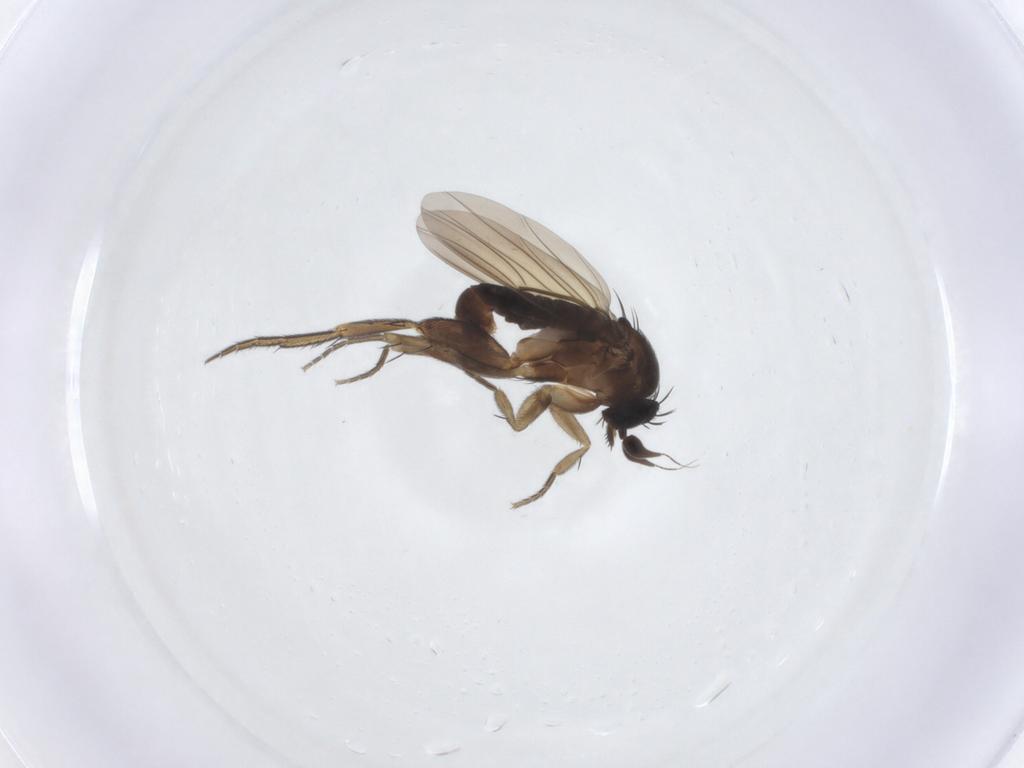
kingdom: Animalia
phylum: Arthropoda
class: Insecta
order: Diptera
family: Phoridae
